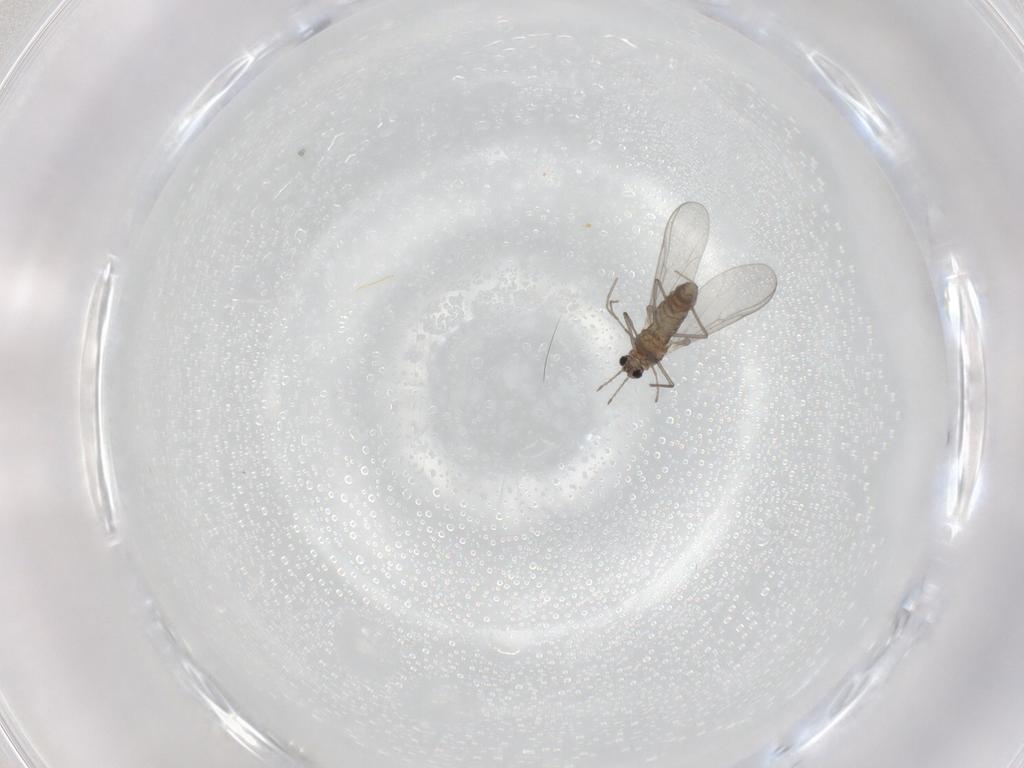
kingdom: Animalia
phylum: Arthropoda
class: Insecta
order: Diptera
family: Chironomidae
